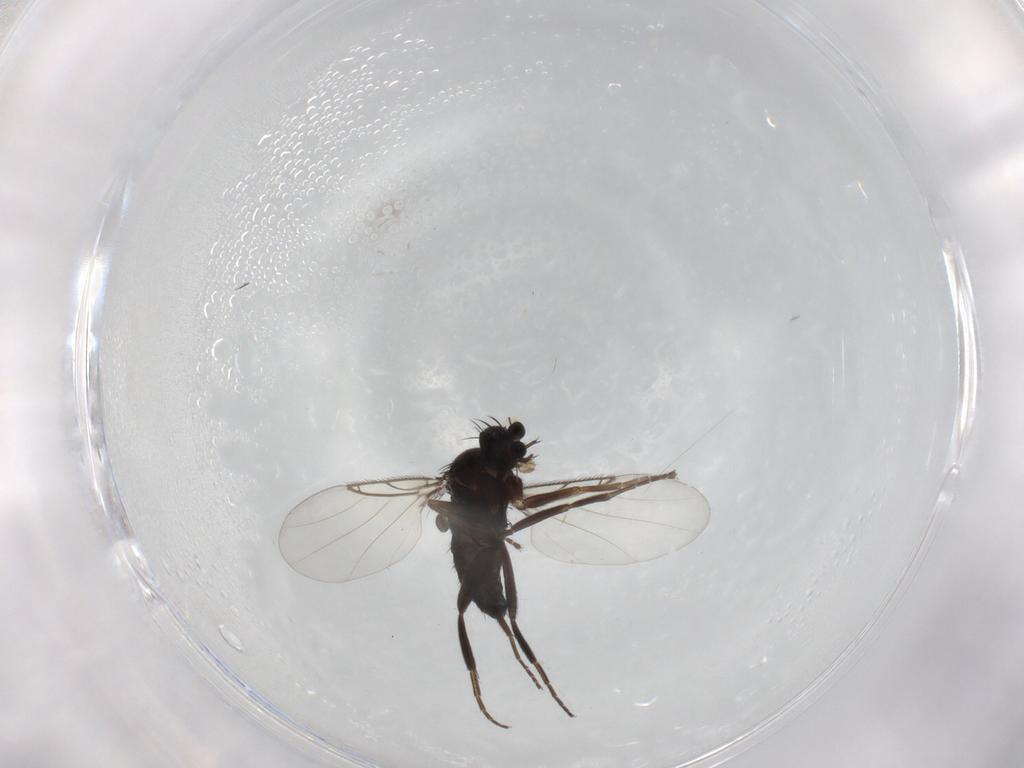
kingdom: Animalia
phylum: Arthropoda
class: Insecta
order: Diptera
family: Phoridae
